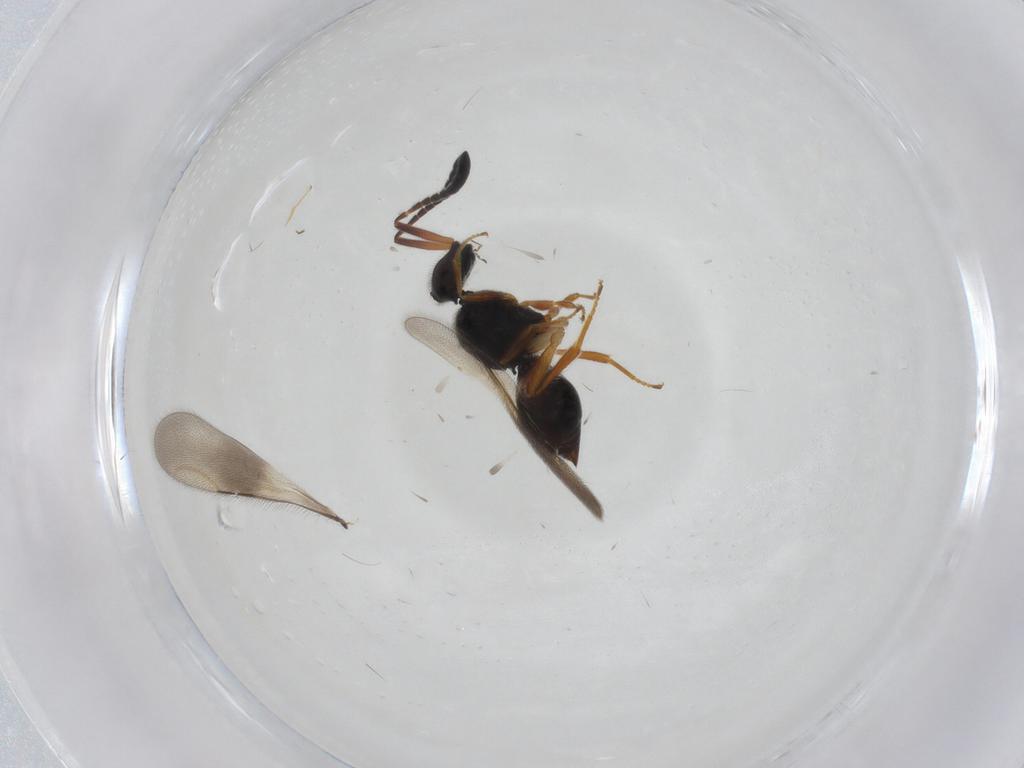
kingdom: Animalia
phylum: Arthropoda
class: Insecta
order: Hymenoptera
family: Mymaridae
